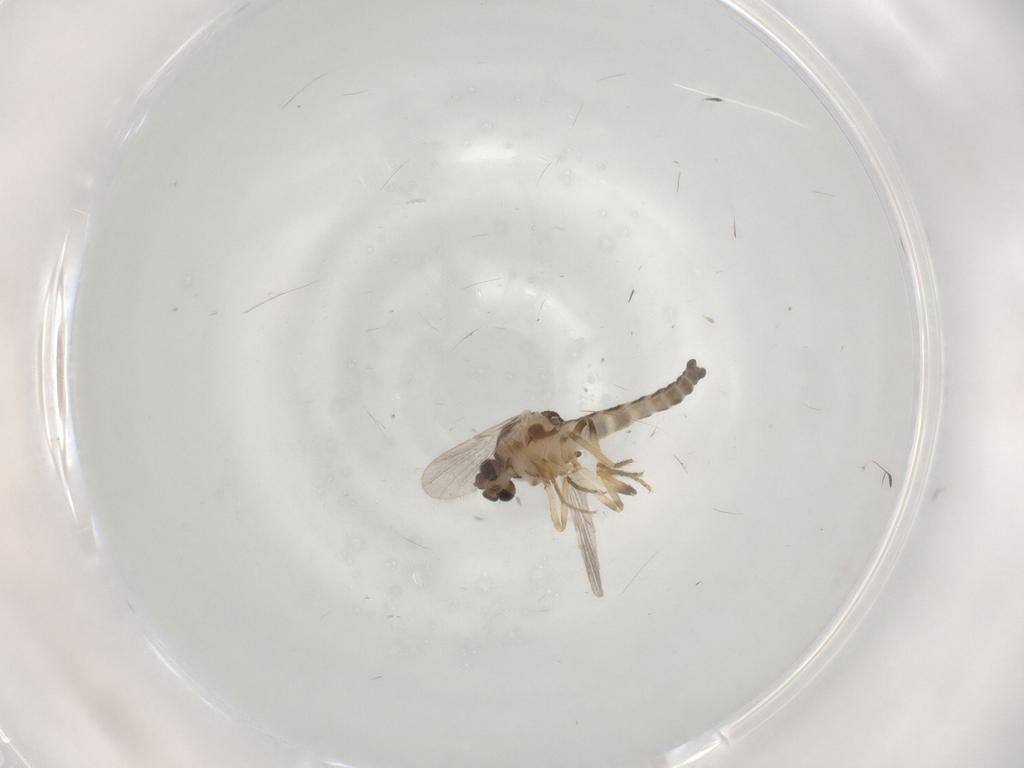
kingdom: Animalia
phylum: Arthropoda
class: Insecta
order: Diptera
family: Ceratopogonidae
